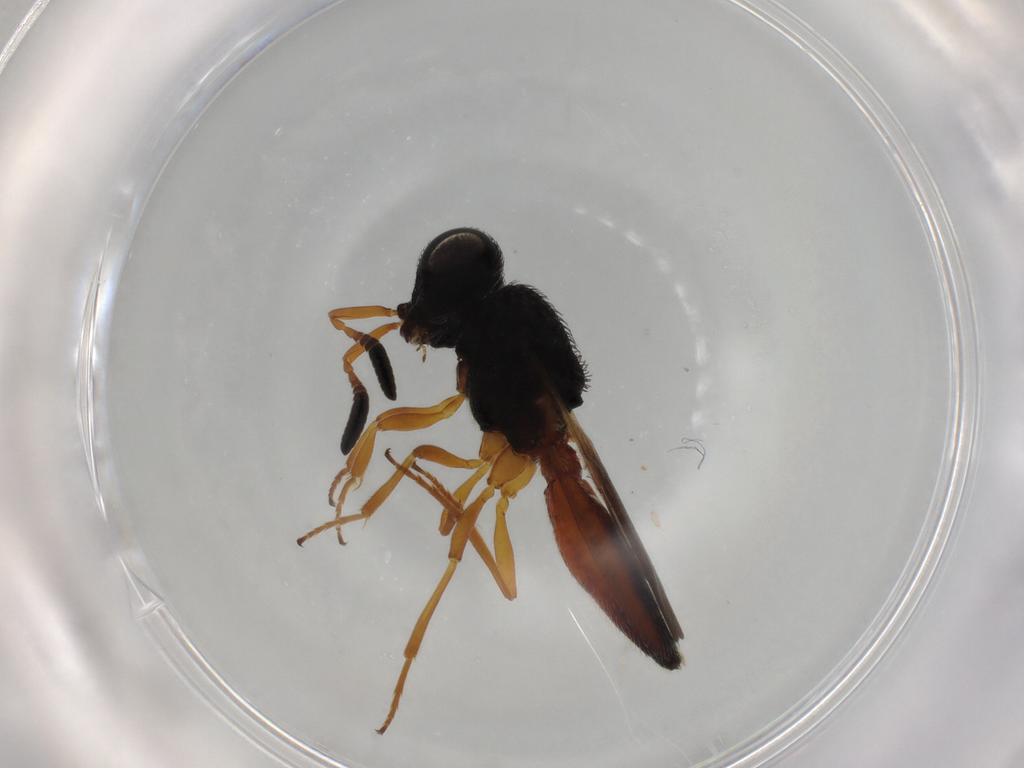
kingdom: Animalia
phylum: Arthropoda
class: Insecta
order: Hymenoptera
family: Scelionidae
